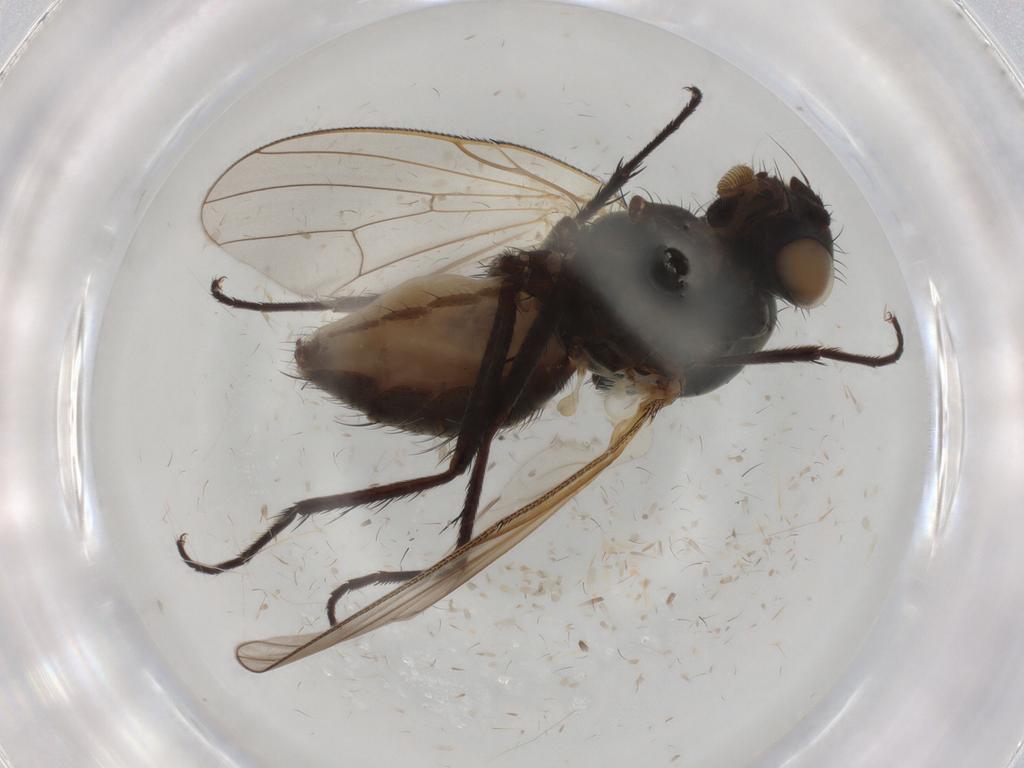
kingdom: Animalia
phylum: Arthropoda
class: Insecta
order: Diptera
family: Anthomyiidae
